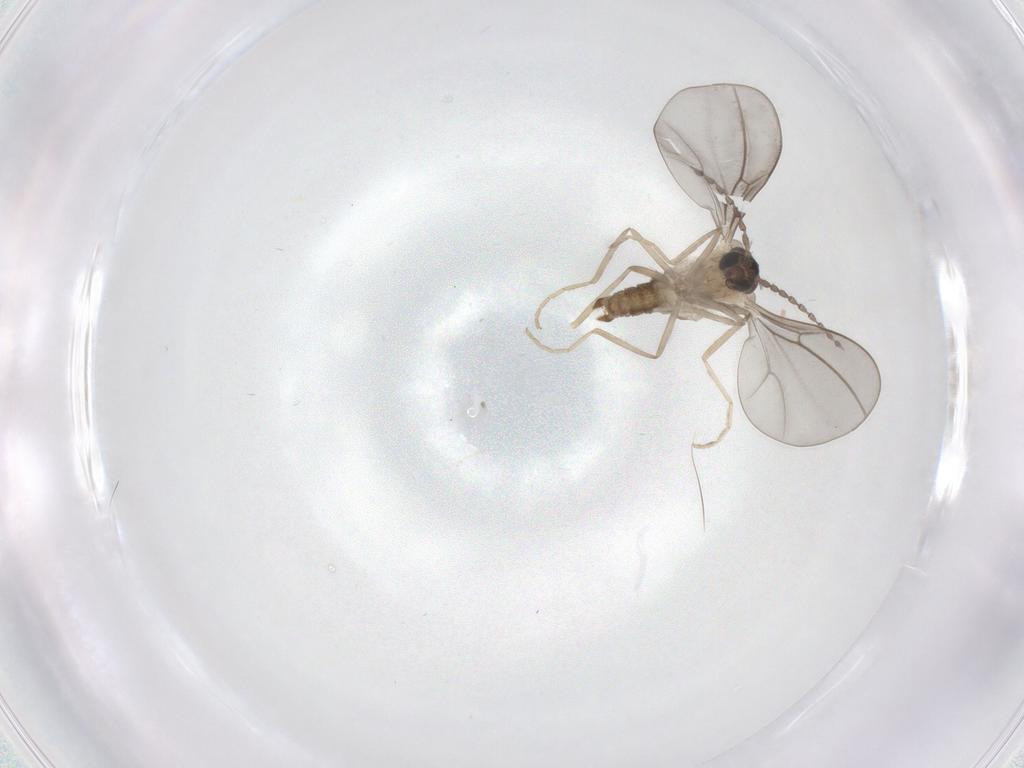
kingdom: Animalia
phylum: Arthropoda
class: Insecta
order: Diptera
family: Cecidomyiidae
